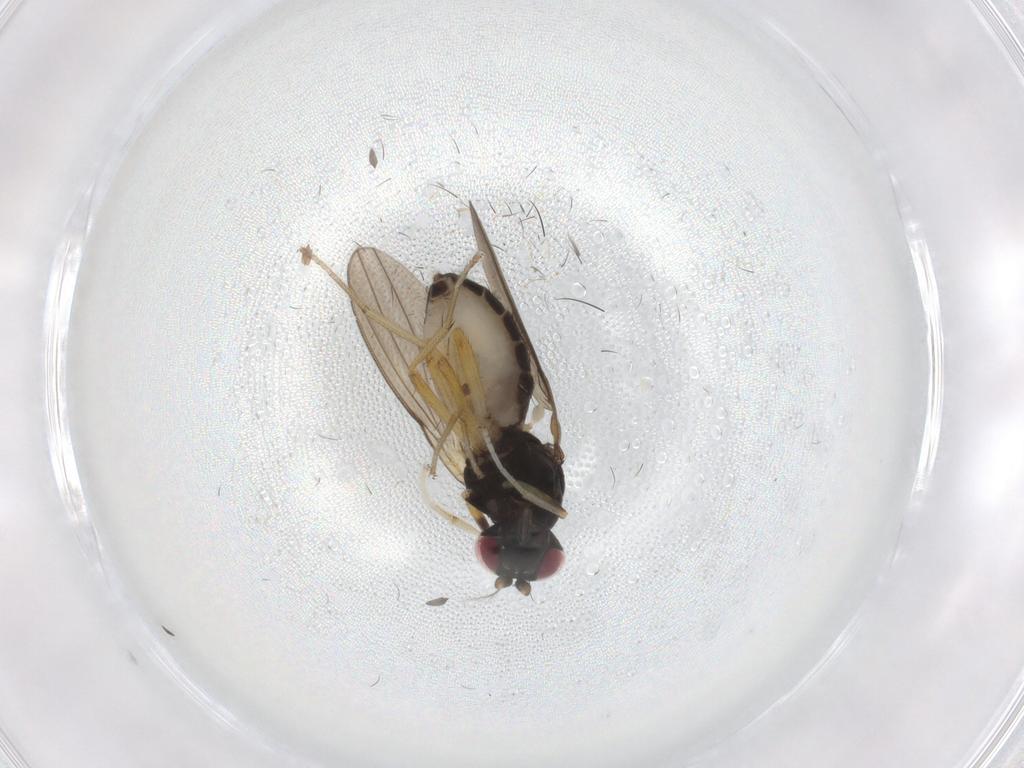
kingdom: Animalia
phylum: Arthropoda
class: Insecta
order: Diptera
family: Lauxaniidae
